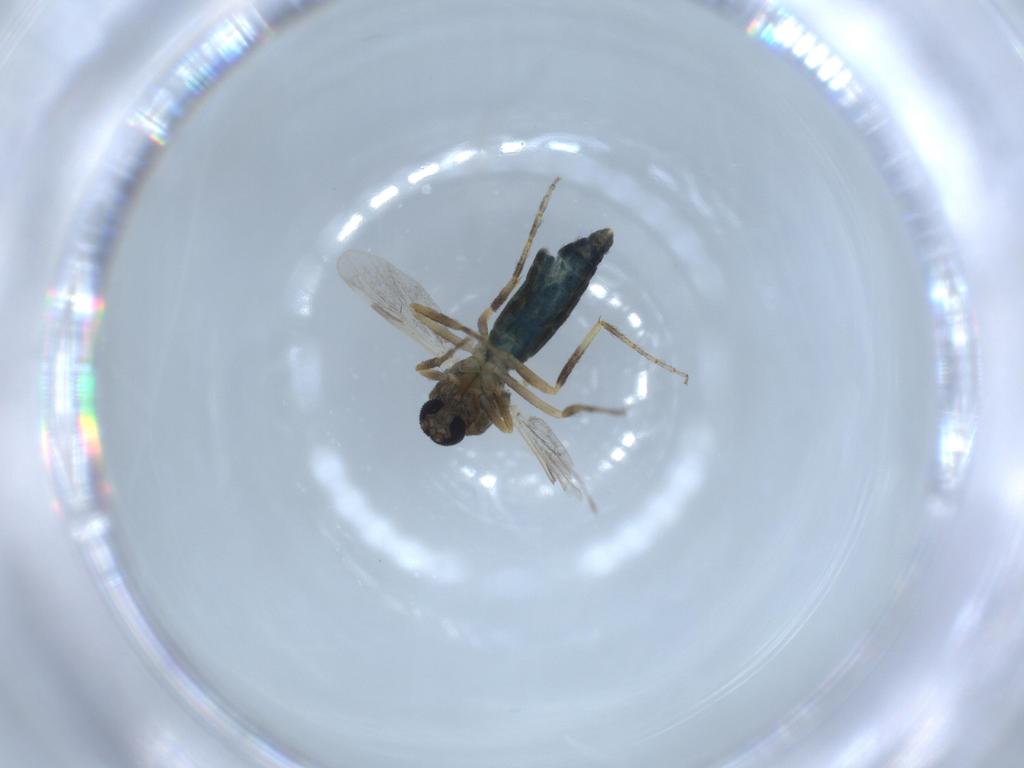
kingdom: Animalia
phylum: Arthropoda
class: Insecta
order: Diptera
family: Ceratopogonidae
